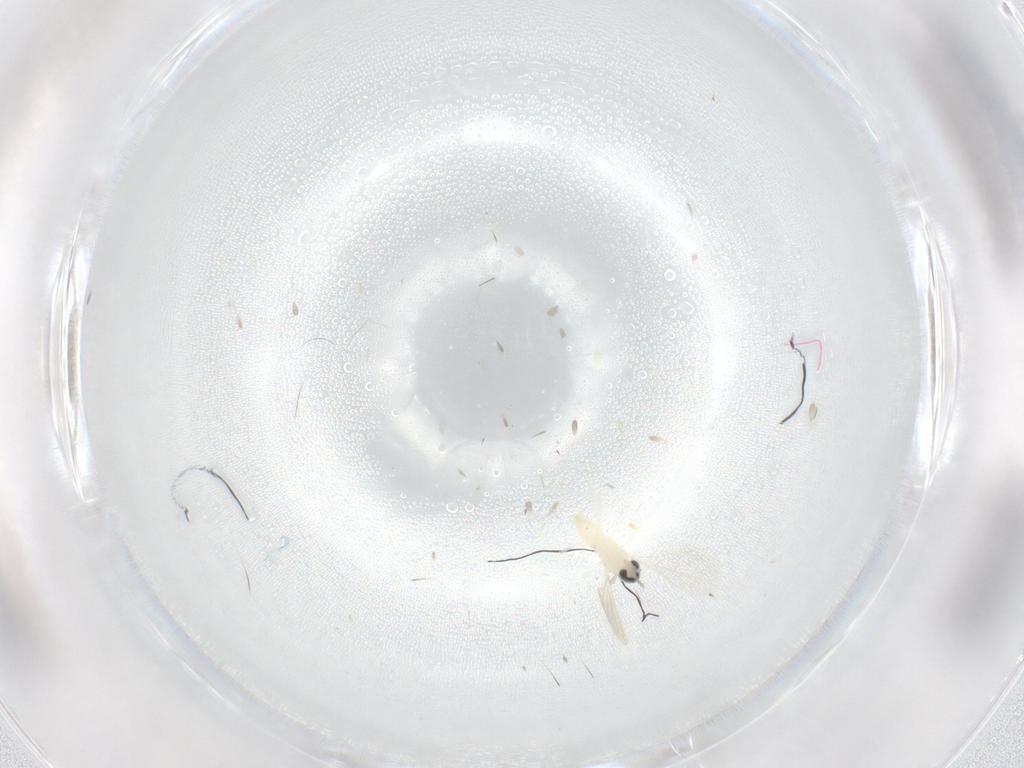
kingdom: Animalia
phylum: Arthropoda
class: Insecta
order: Diptera
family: Cecidomyiidae
